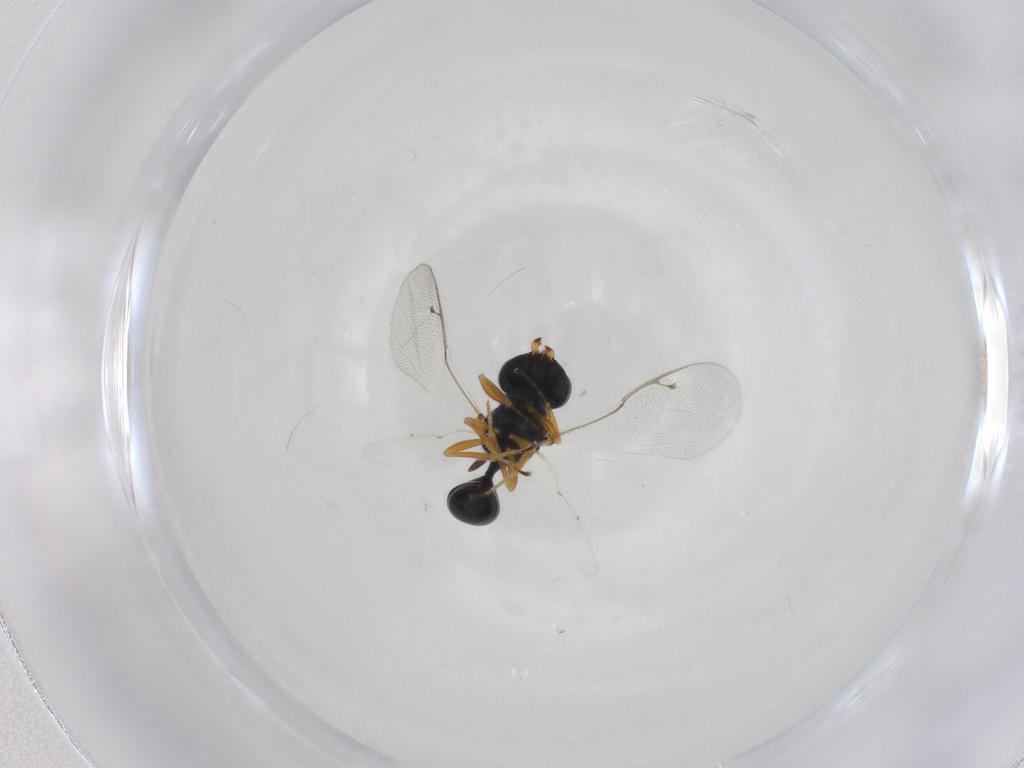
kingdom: Animalia
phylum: Arthropoda
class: Insecta
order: Hymenoptera
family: Pteromalidae
